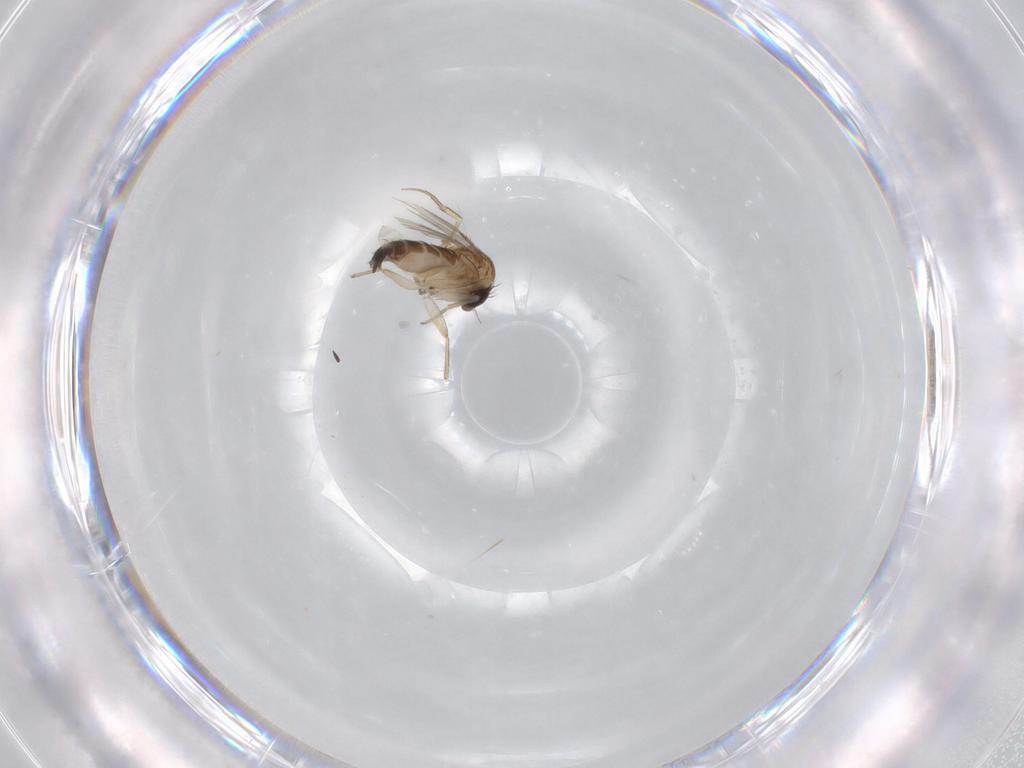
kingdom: Animalia
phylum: Arthropoda
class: Insecta
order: Diptera
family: Phoridae
